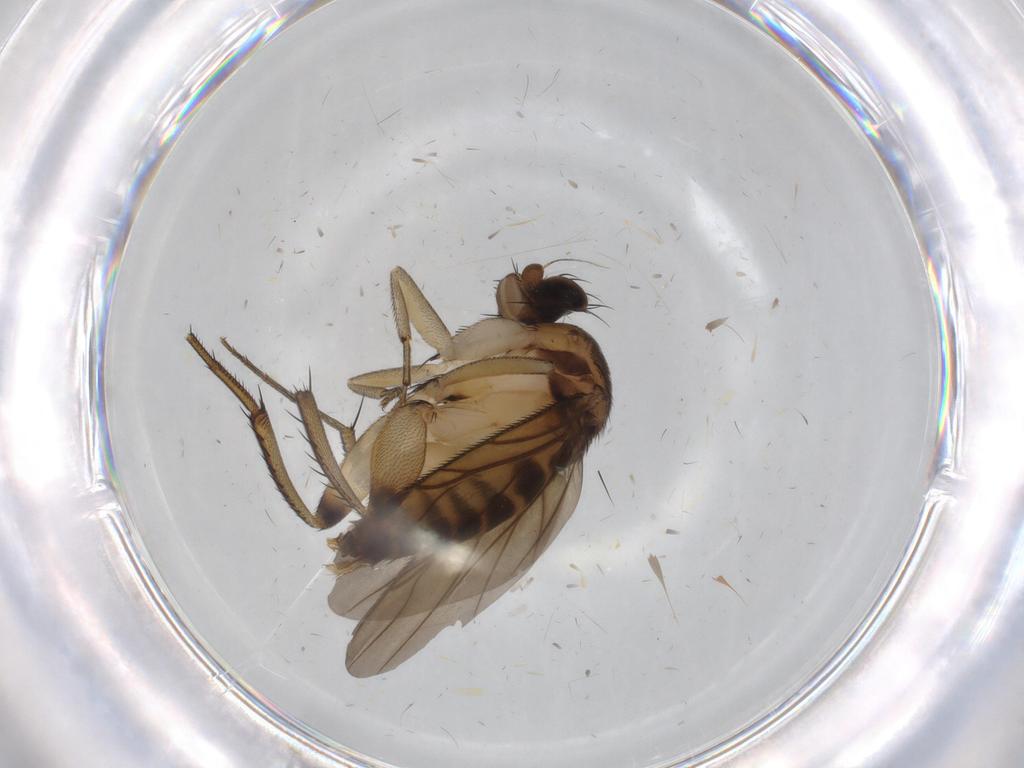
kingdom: Animalia
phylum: Arthropoda
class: Insecta
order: Diptera
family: Phoridae
